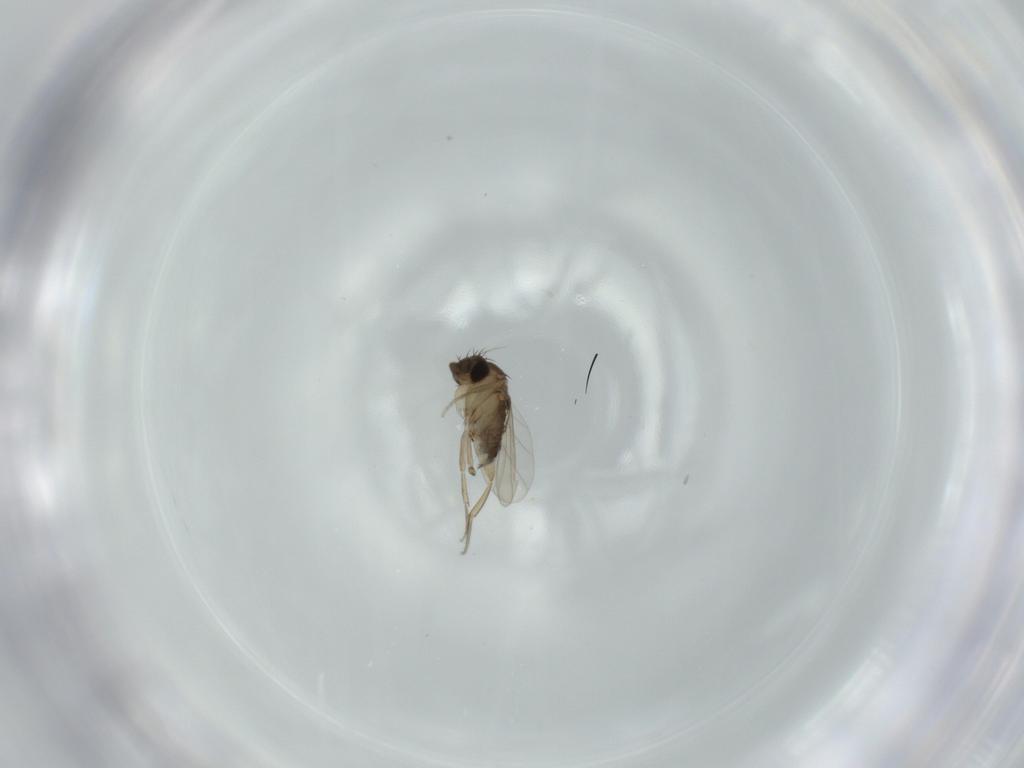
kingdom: Animalia
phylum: Arthropoda
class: Insecta
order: Diptera
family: Phoridae
